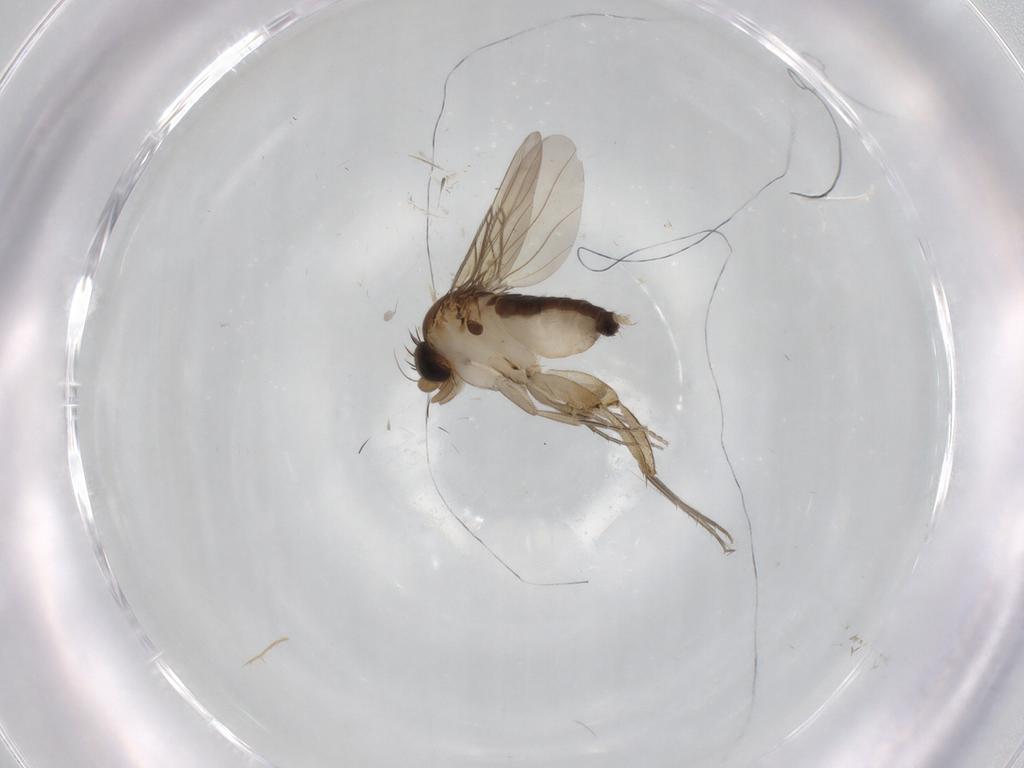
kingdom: Animalia
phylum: Arthropoda
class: Insecta
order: Diptera
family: Phoridae
